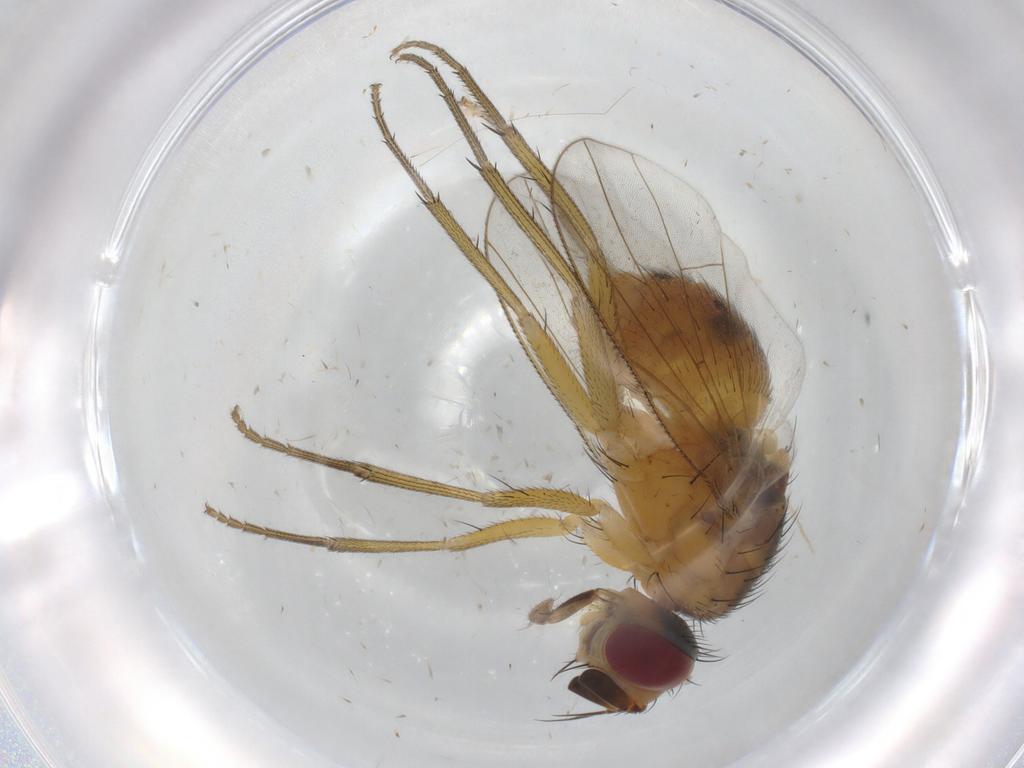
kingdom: Animalia
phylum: Arthropoda
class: Insecta
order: Diptera
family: Muscidae
